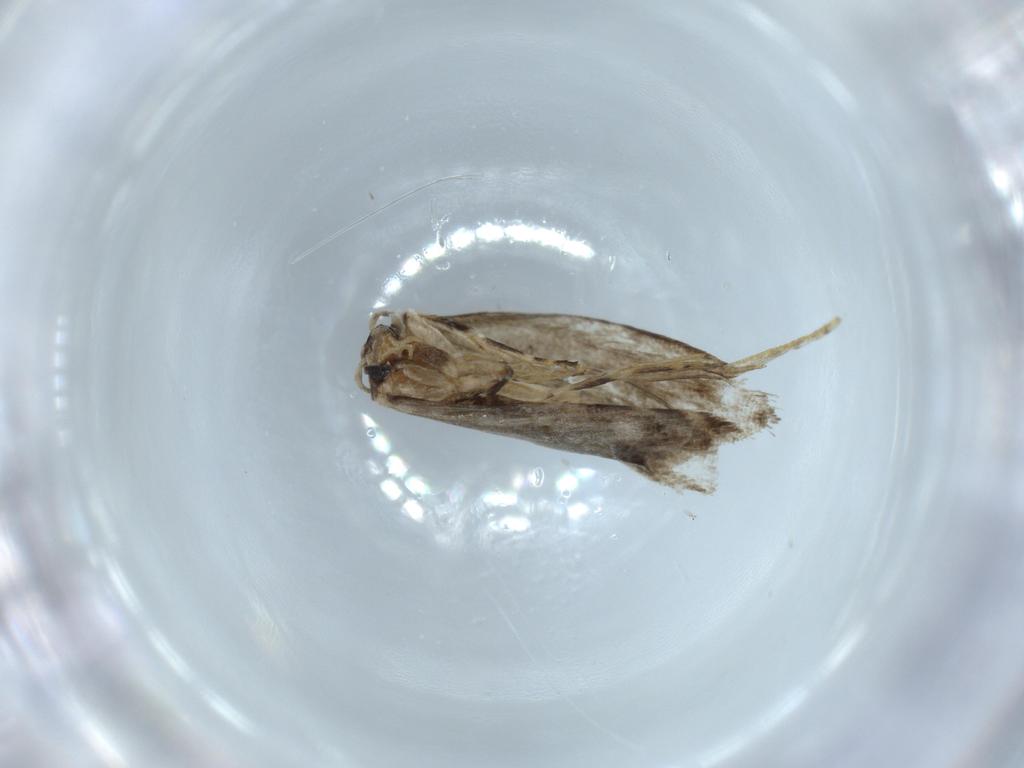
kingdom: Animalia
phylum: Arthropoda
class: Insecta
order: Lepidoptera
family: Tineidae
